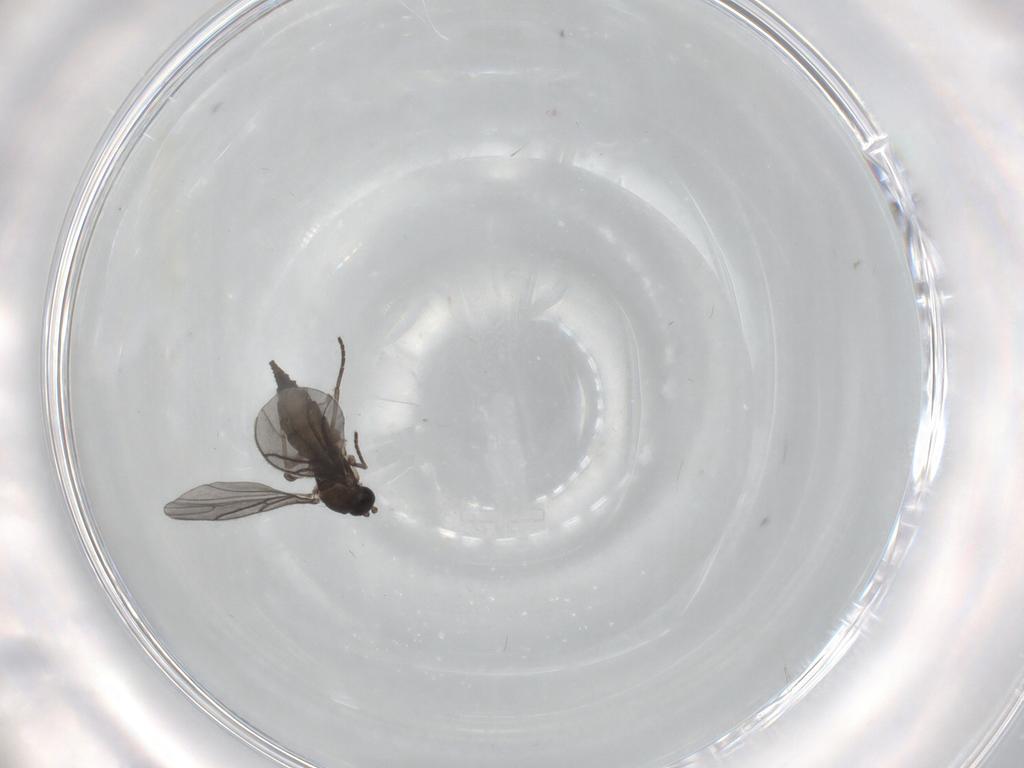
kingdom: Animalia
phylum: Arthropoda
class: Insecta
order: Diptera
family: Sciaridae
